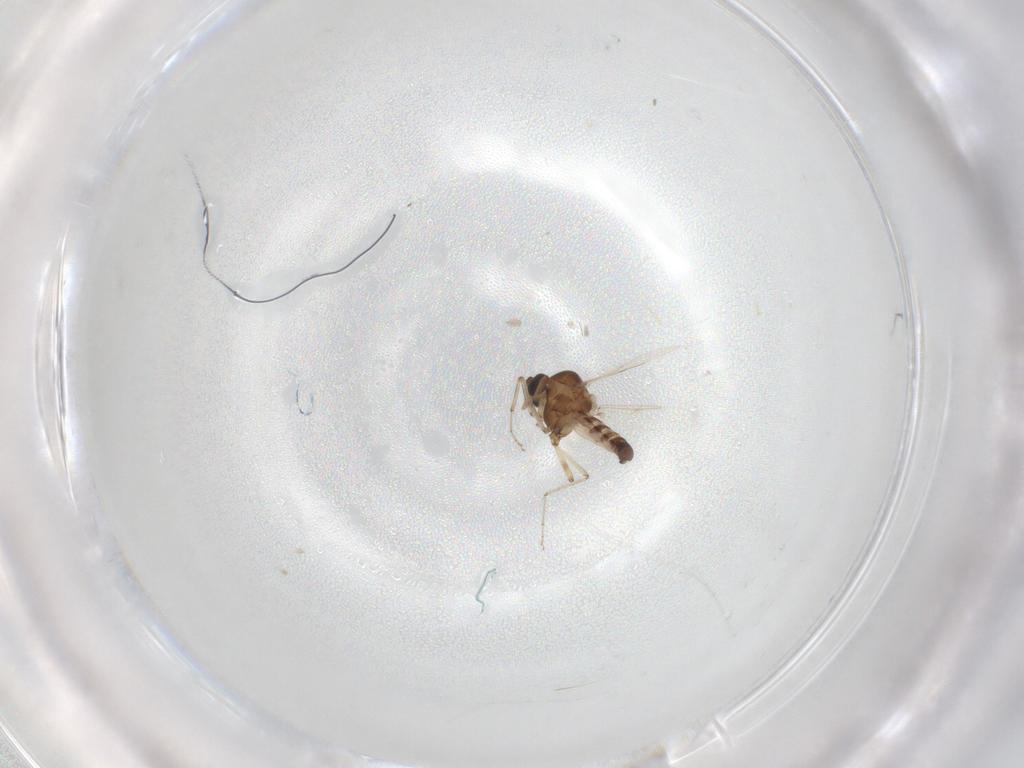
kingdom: Animalia
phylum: Arthropoda
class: Insecta
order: Diptera
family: Ceratopogonidae
